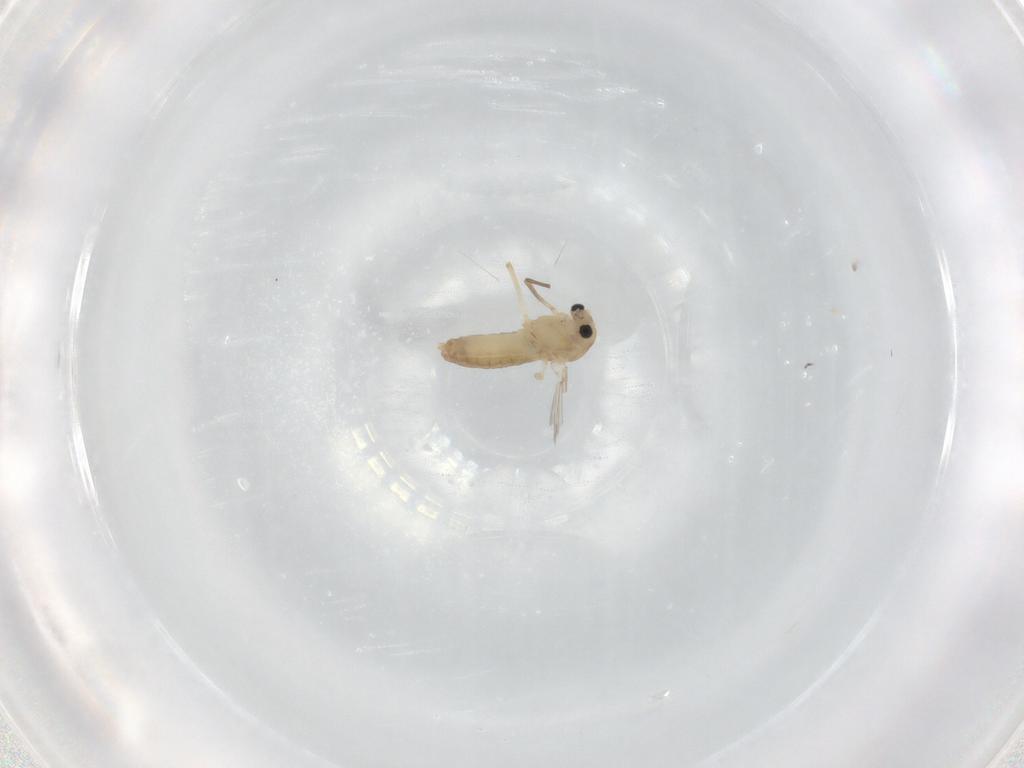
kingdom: Animalia
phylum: Arthropoda
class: Insecta
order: Diptera
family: Chironomidae
